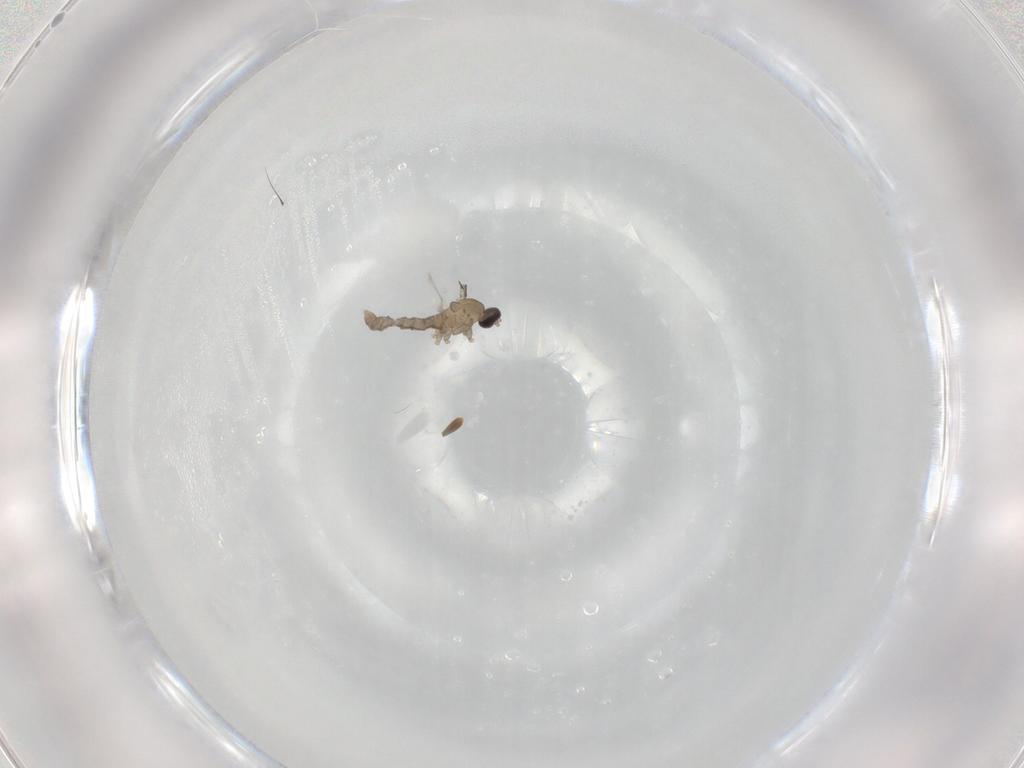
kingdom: Animalia
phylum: Arthropoda
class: Insecta
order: Diptera
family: Cecidomyiidae
